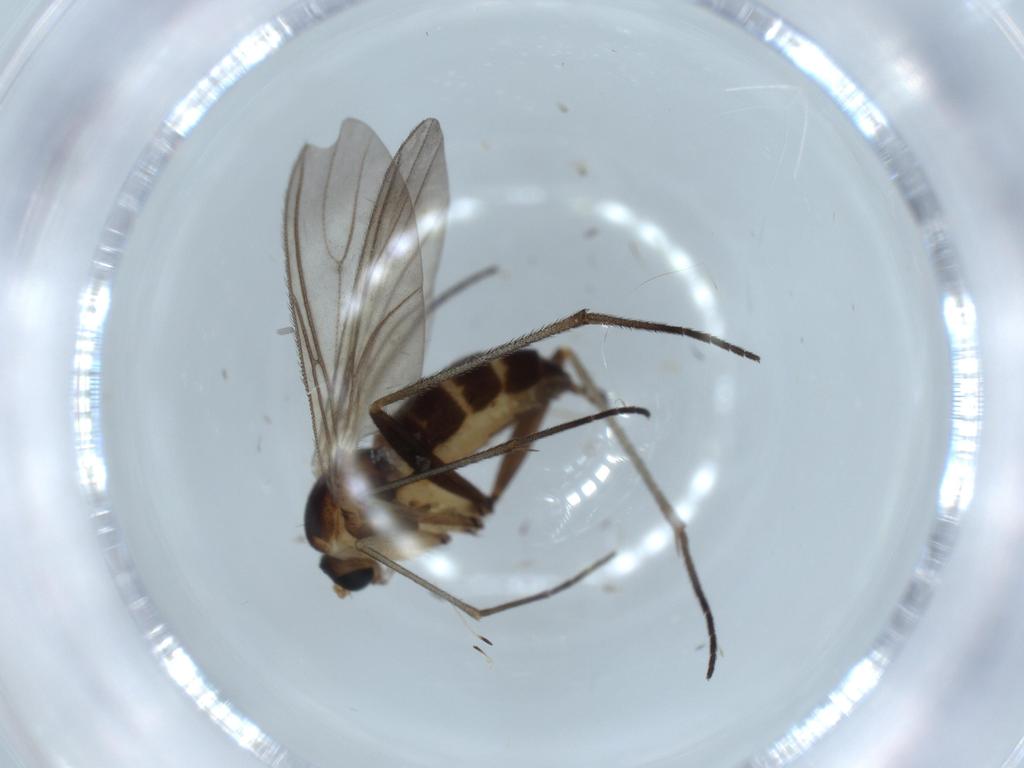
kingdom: Animalia
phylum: Arthropoda
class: Insecta
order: Diptera
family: Sciaridae
